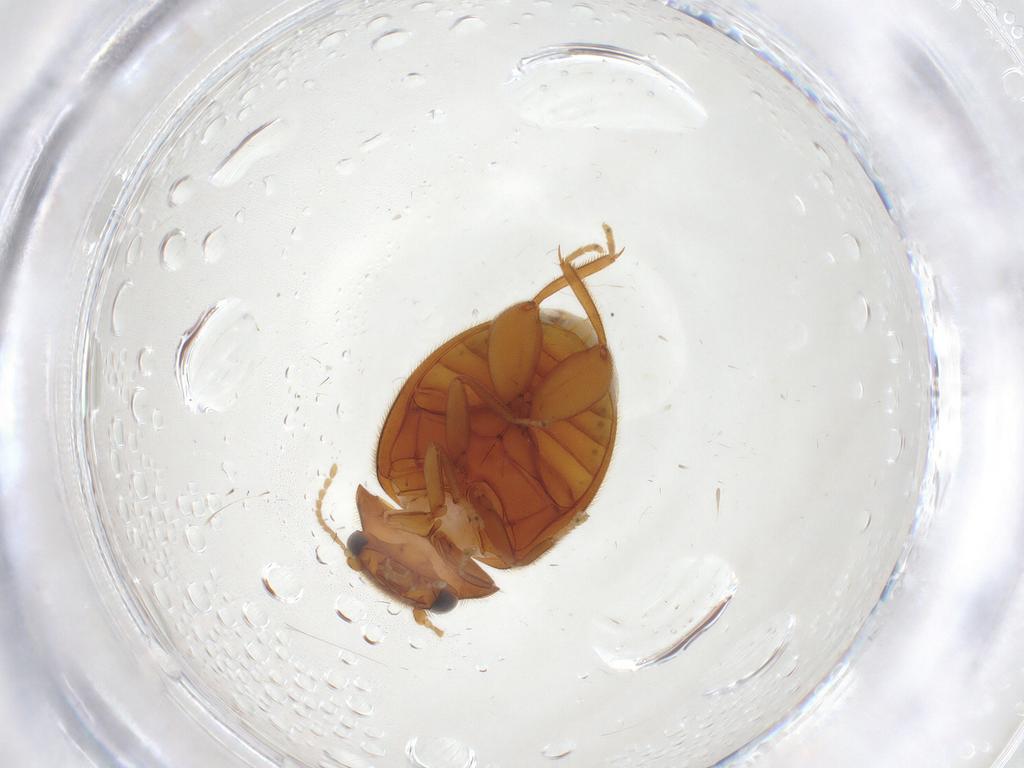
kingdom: Animalia
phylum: Arthropoda
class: Insecta
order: Coleoptera
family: Scirtidae
